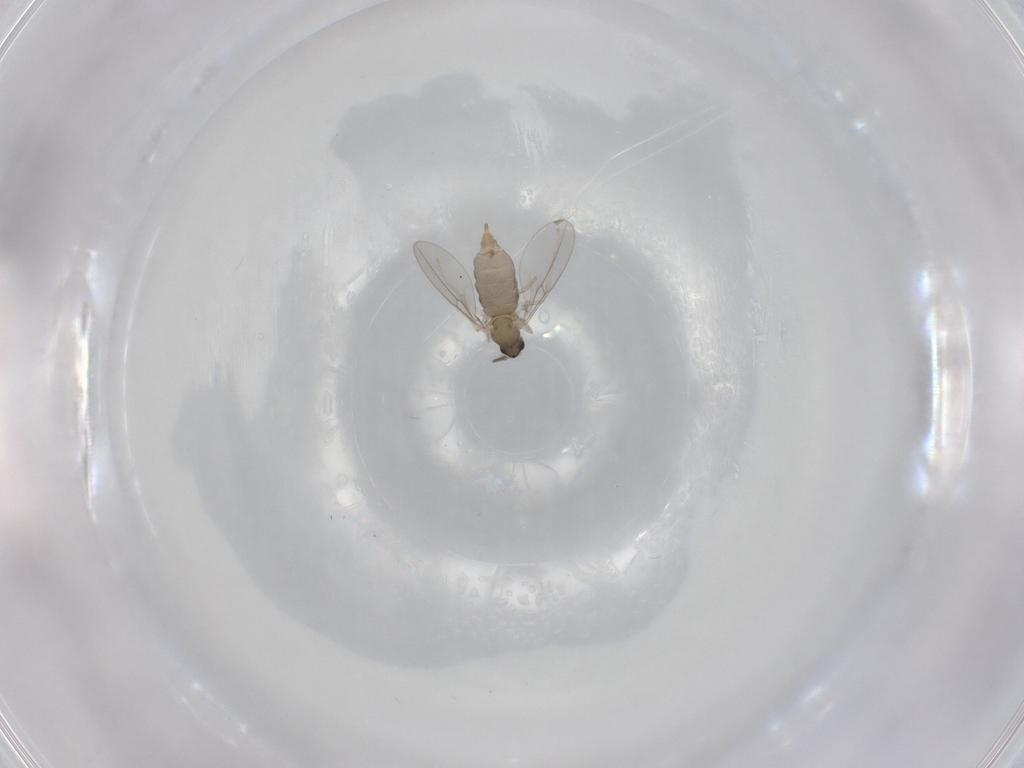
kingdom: Animalia
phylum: Arthropoda
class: Insecta
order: Diptera
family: Cecidomyiidae
